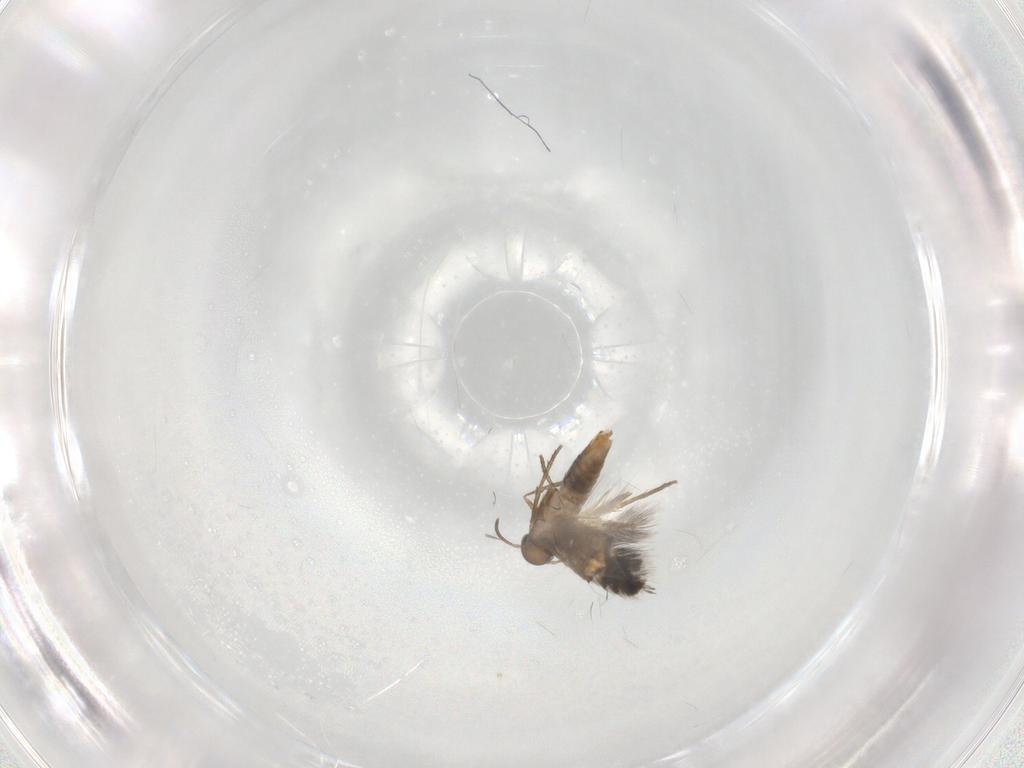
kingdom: Animalia
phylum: Arthropoda
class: Insecta
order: Lepidoptera
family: Heliozelidae
